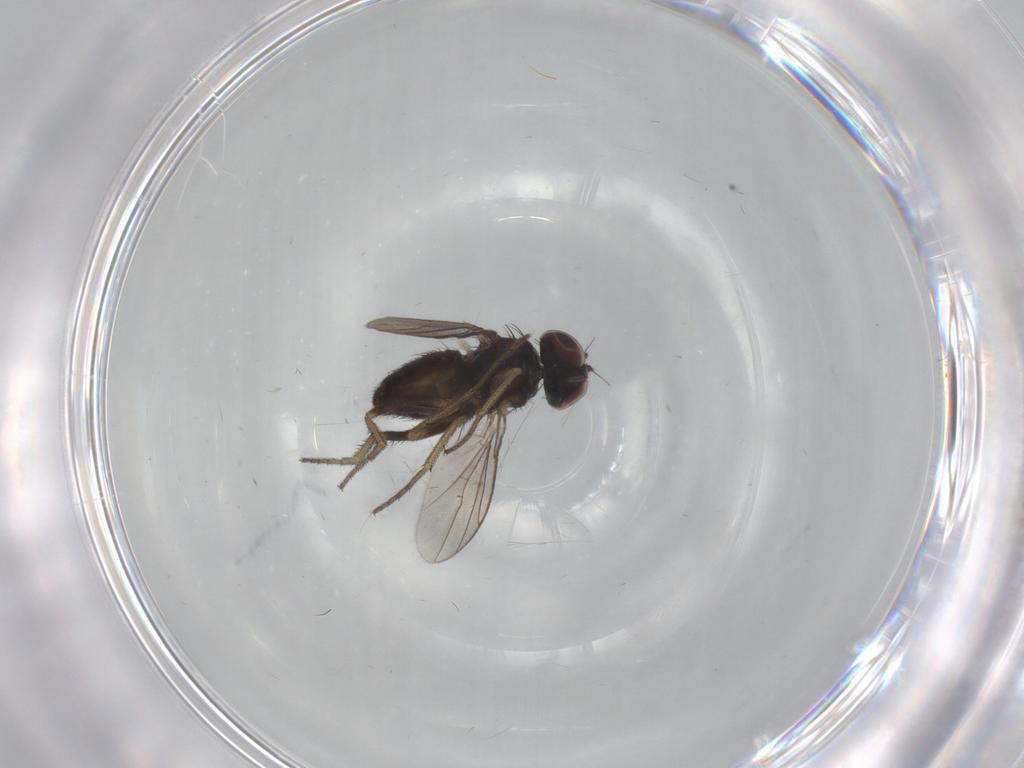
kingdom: Animalia
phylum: Arthropoda
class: Insecta
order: Diptera
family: Dolichopodidae
